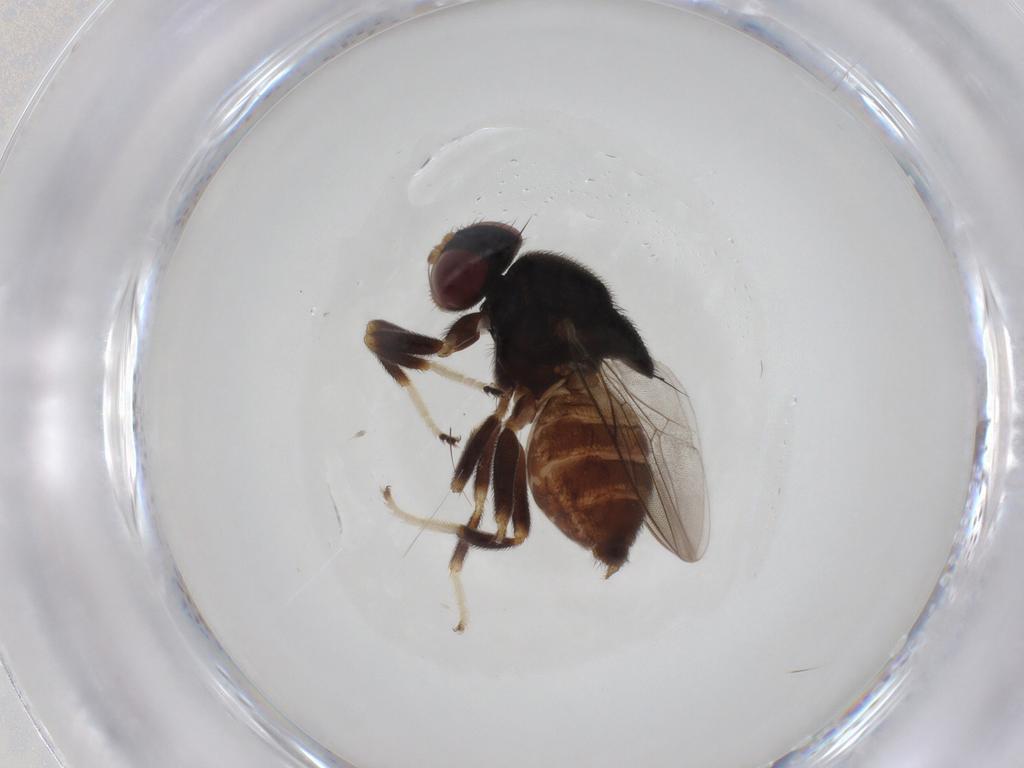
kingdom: Animalia
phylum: Arthropoda
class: Insecta
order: Diptera
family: Chloropidae
